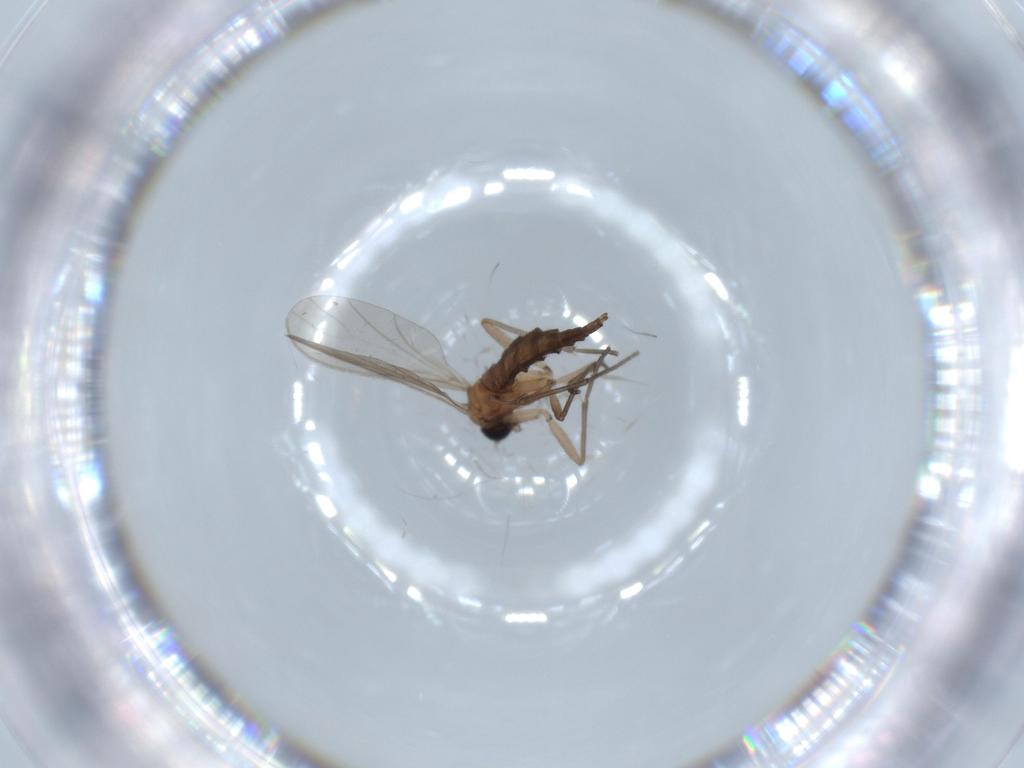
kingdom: Animalia
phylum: Arthropoda
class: Insecta
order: Diptera
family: Sciaridae
